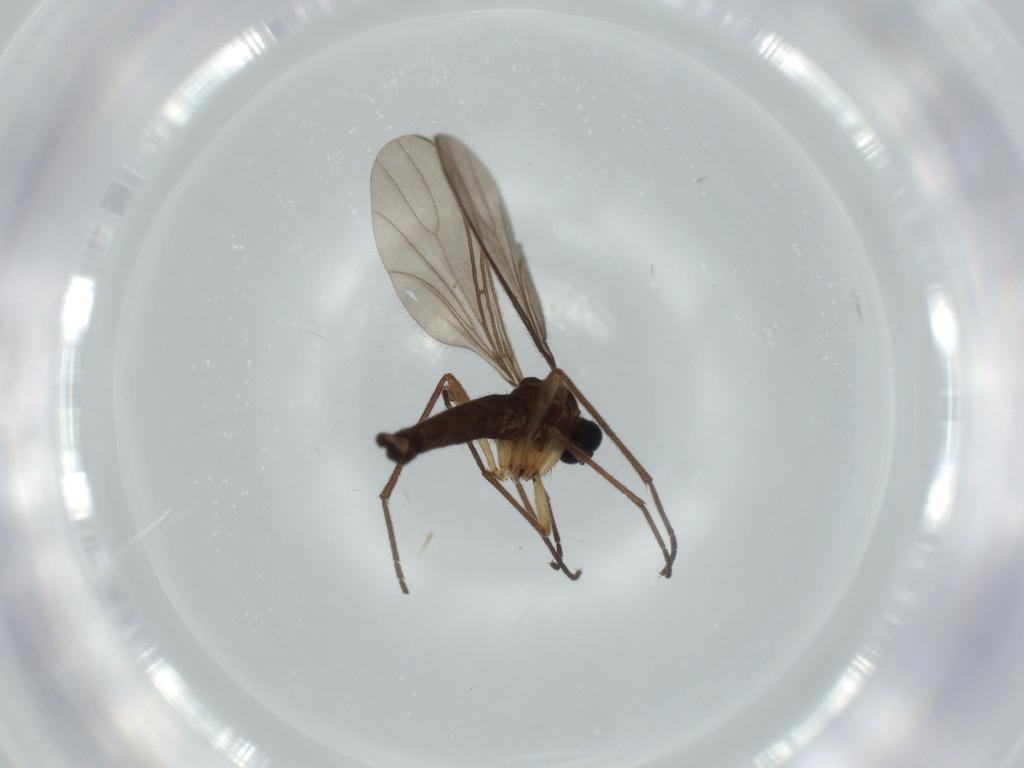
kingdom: Animalia
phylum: Arthropoda
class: Insecta
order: Diptera
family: Sciaridae
